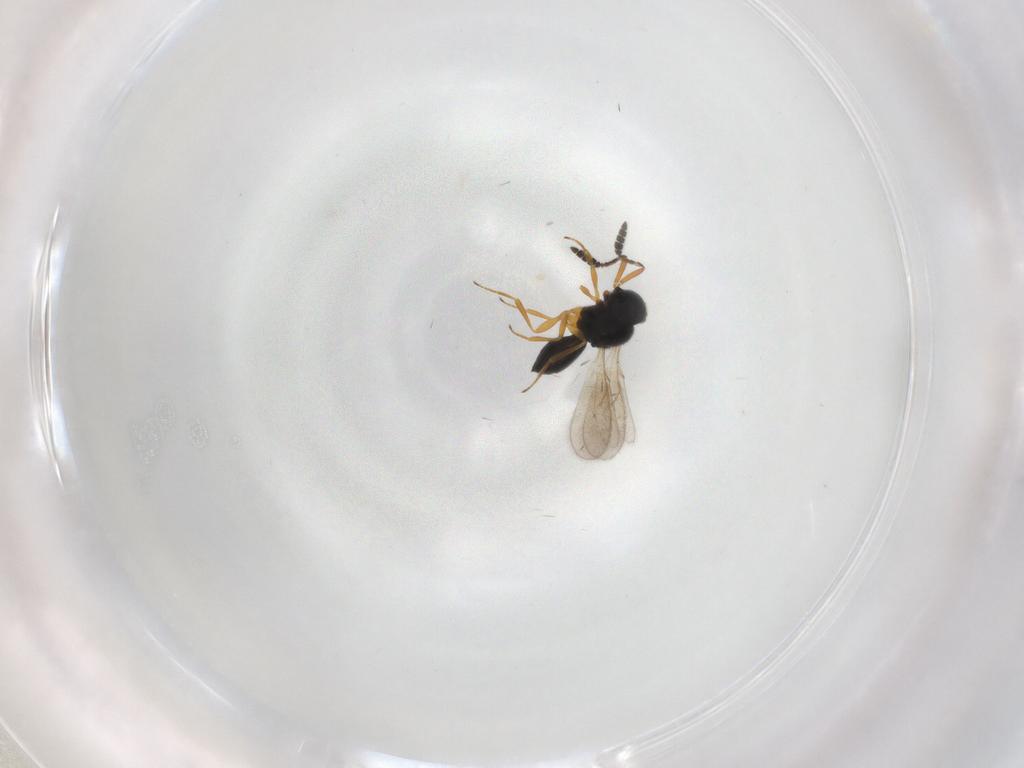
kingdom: Animalia
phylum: Arthropoda
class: Insecta
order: Hymenoptera
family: Scelionidae
